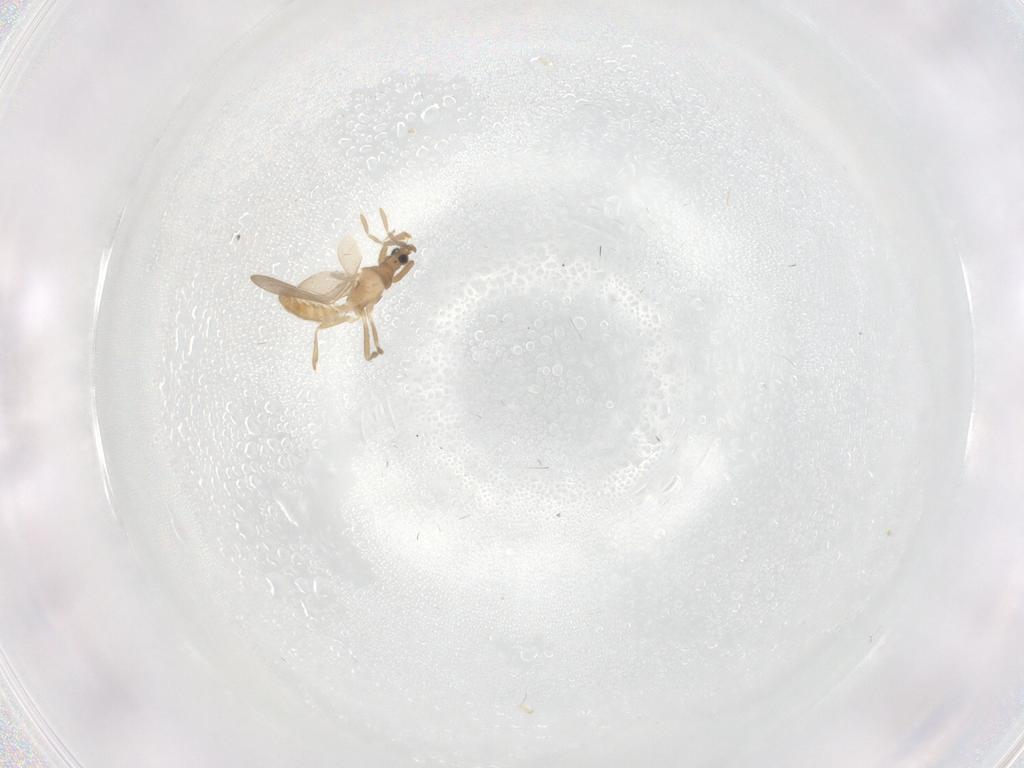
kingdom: Animalia
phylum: Arthropoda
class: Insecta
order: Hemiptera
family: Enicocephalidae
